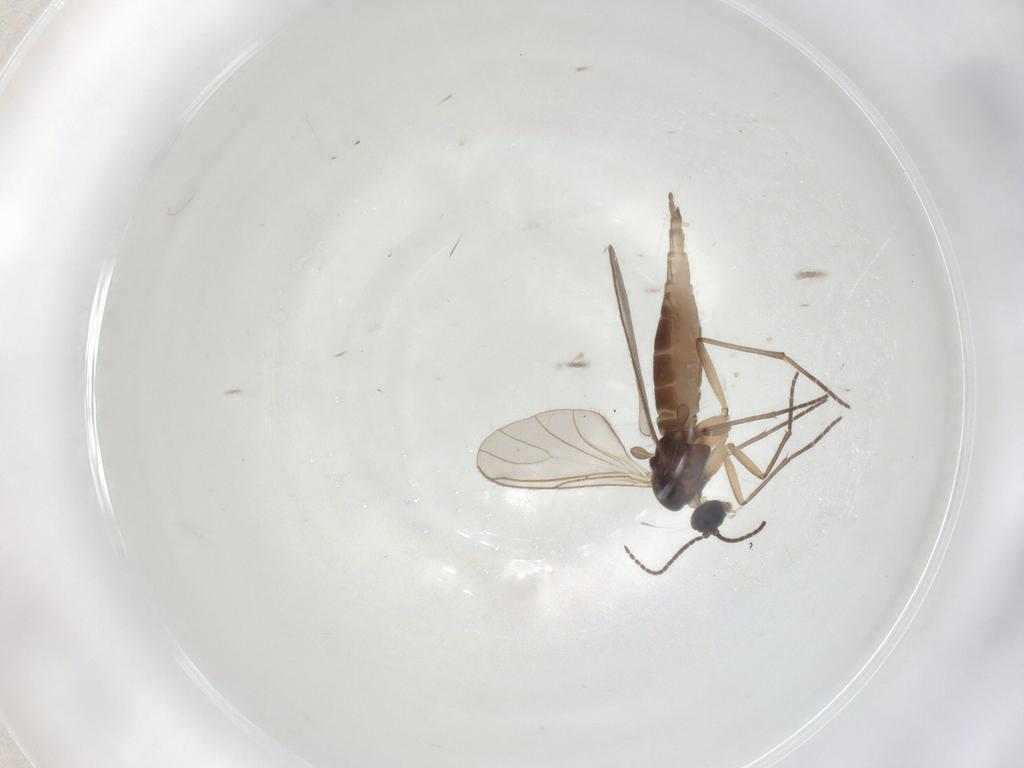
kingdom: Animalia
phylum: Arthropoda
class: Insecta
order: Diptera
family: Sciaridae
